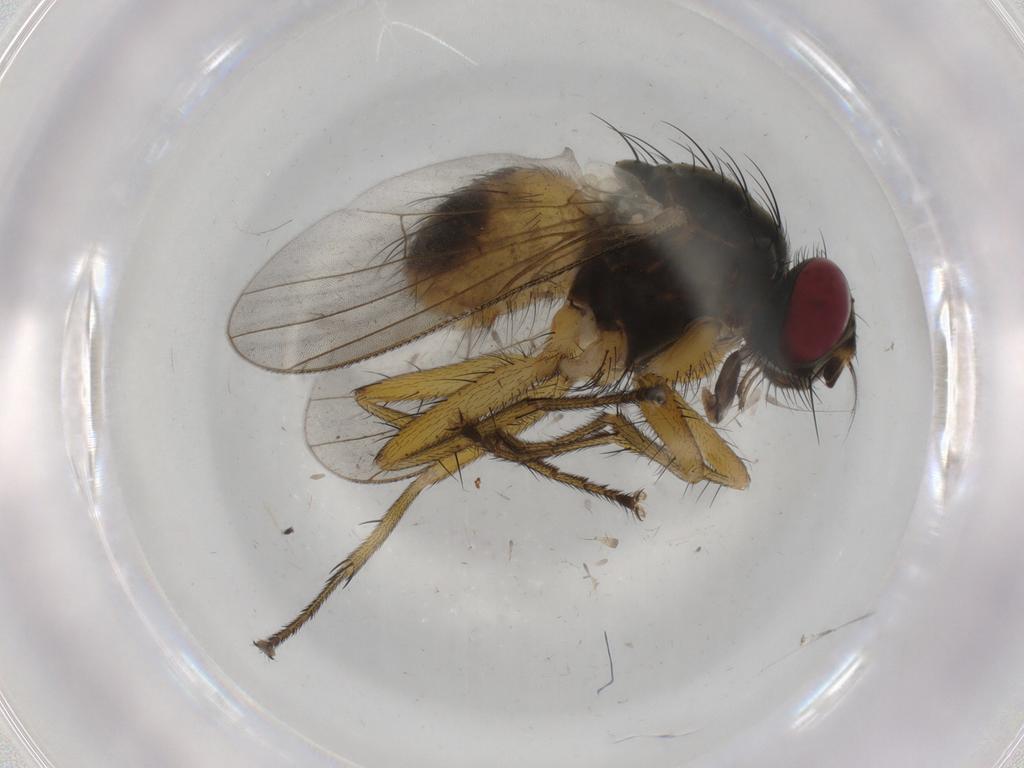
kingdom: Animalia
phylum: Arthropoda
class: Insecta
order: Diptera
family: Muscidae
